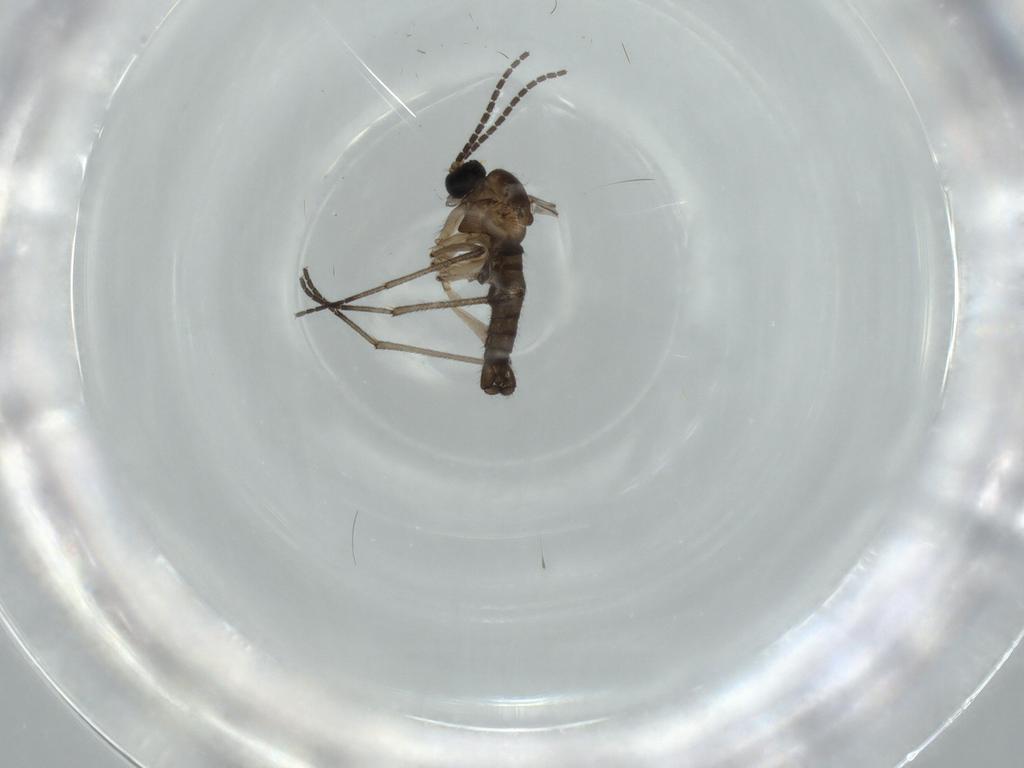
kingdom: Animalia
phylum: Arthropoda
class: Insecta
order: Diptera
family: Sciaridae
